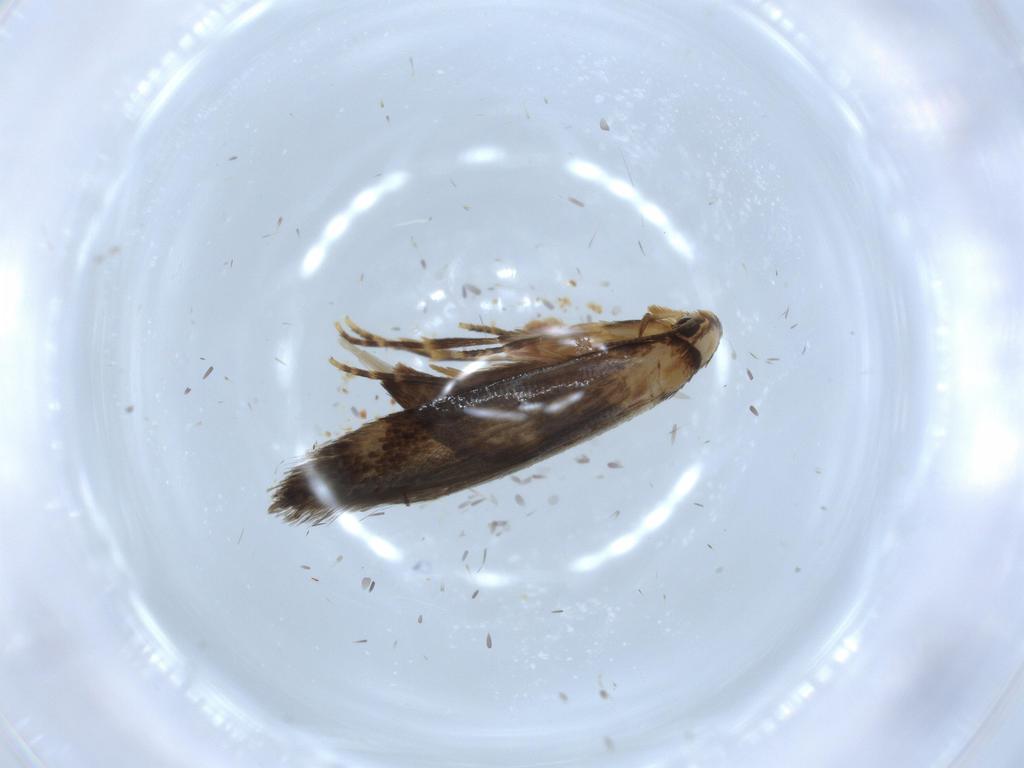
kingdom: Animalia
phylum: Arthropoda
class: Insecta
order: Lepidoptera
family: Tineidae
